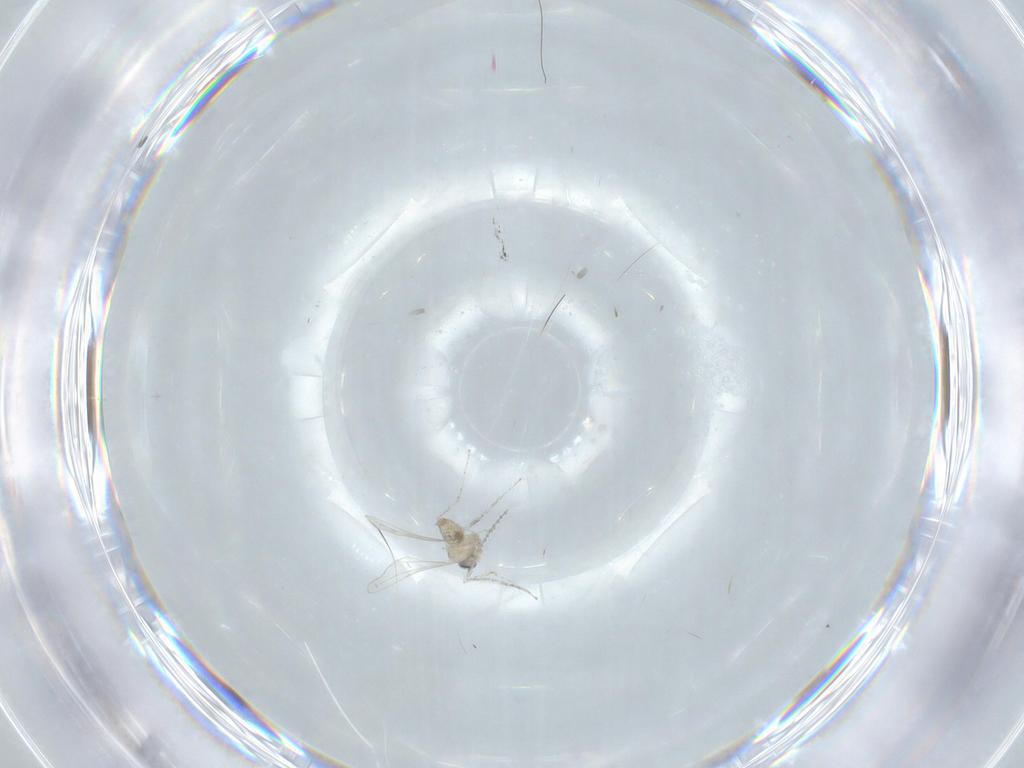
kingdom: Animalia
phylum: Arthropoda
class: Insecta
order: Diptera
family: Cecidomyiidae
